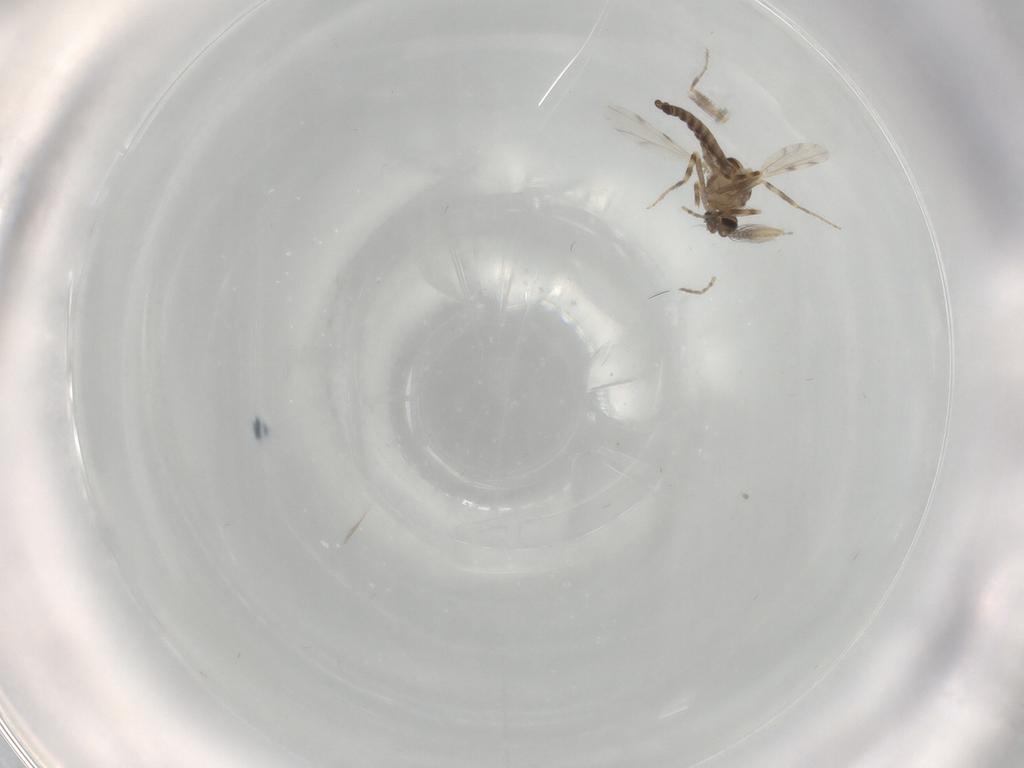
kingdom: Animalia
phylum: Arthropoda
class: Insecta
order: Diptera
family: Ceratopogonidae
